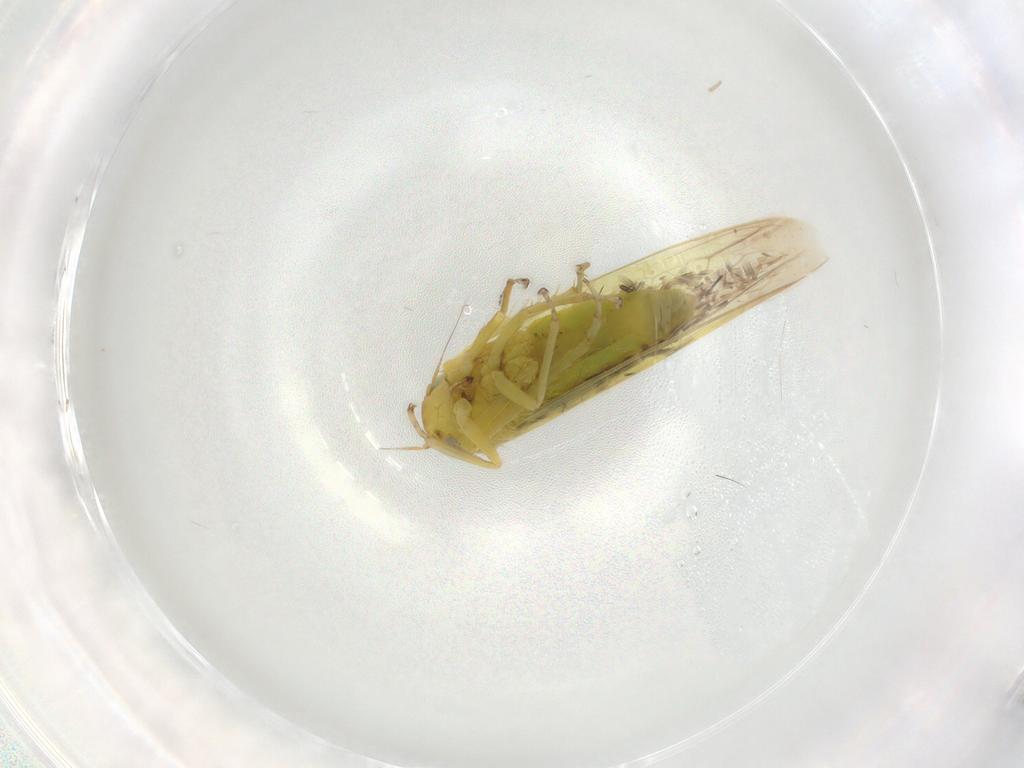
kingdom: Animalia
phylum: Arthropoda
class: Insecta
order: Hemiptera
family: Cicadellidae
